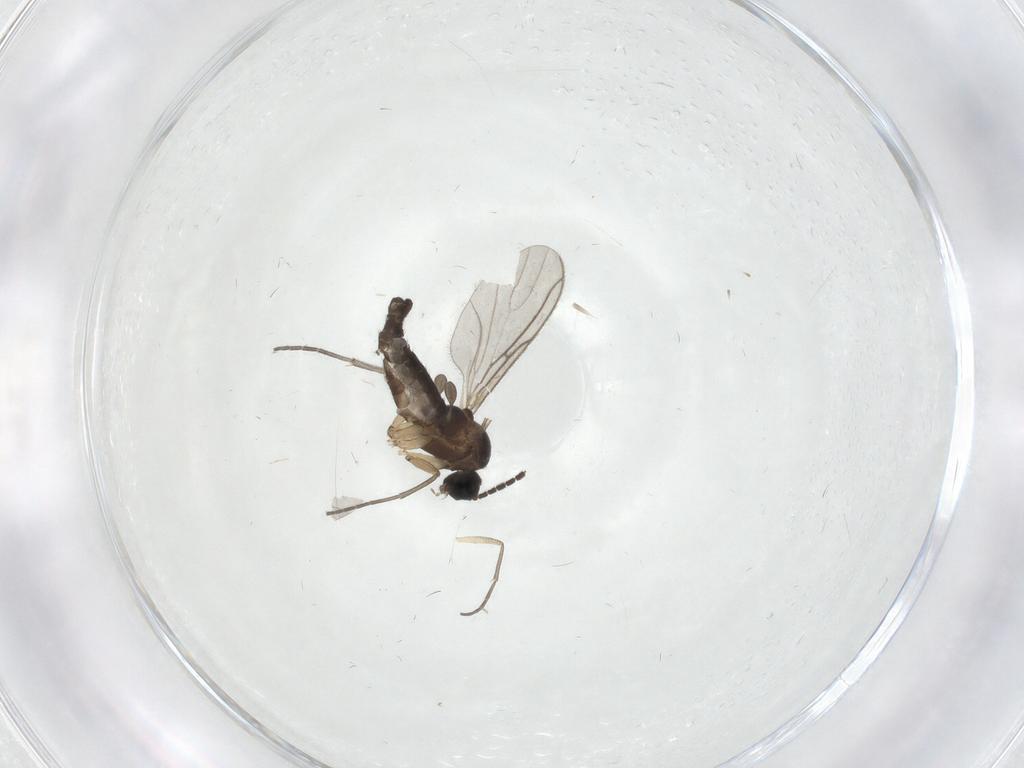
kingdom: Animalia
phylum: Arthropoda
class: Insecta
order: Diptera
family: Sciaridae
